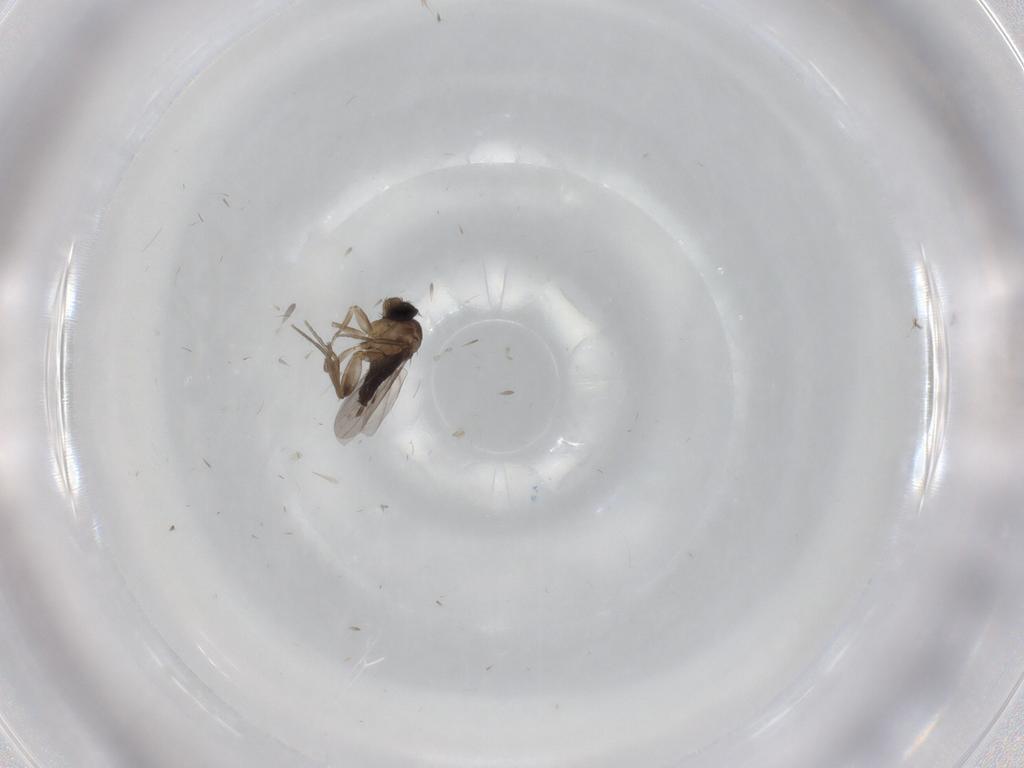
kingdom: Animalia
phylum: Arthropoda
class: Insecta
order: Diptera
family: Phoridae
